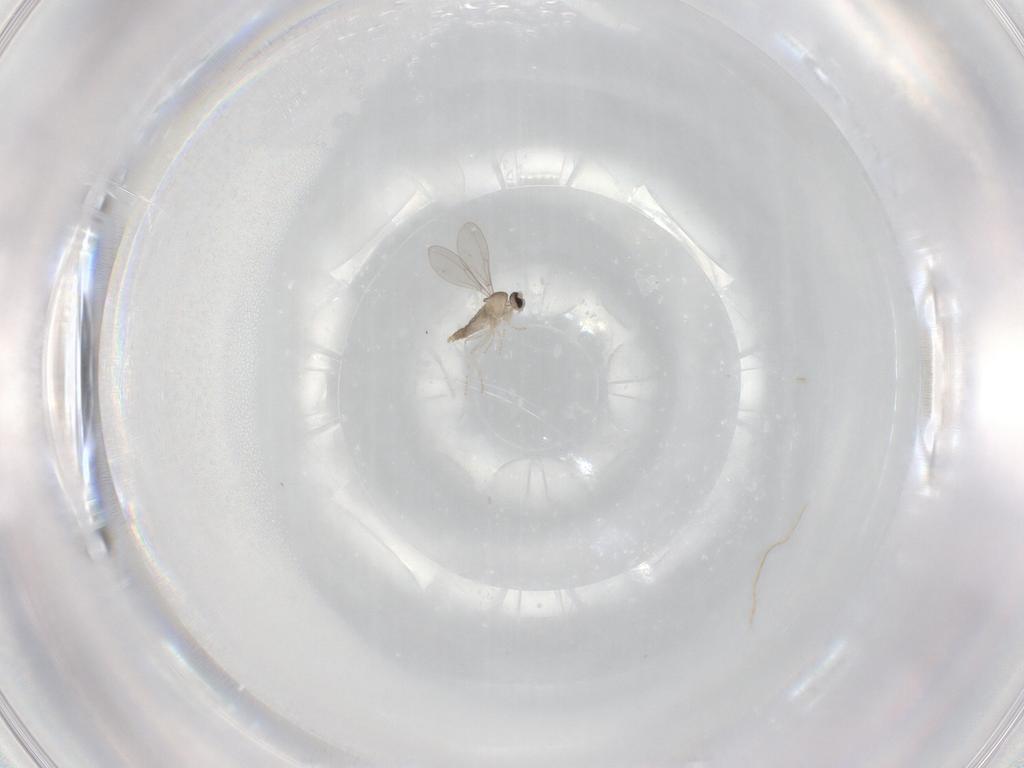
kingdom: Animalia
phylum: Arthropoda
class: Insecta
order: Diptera
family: Cecidomyiidae
